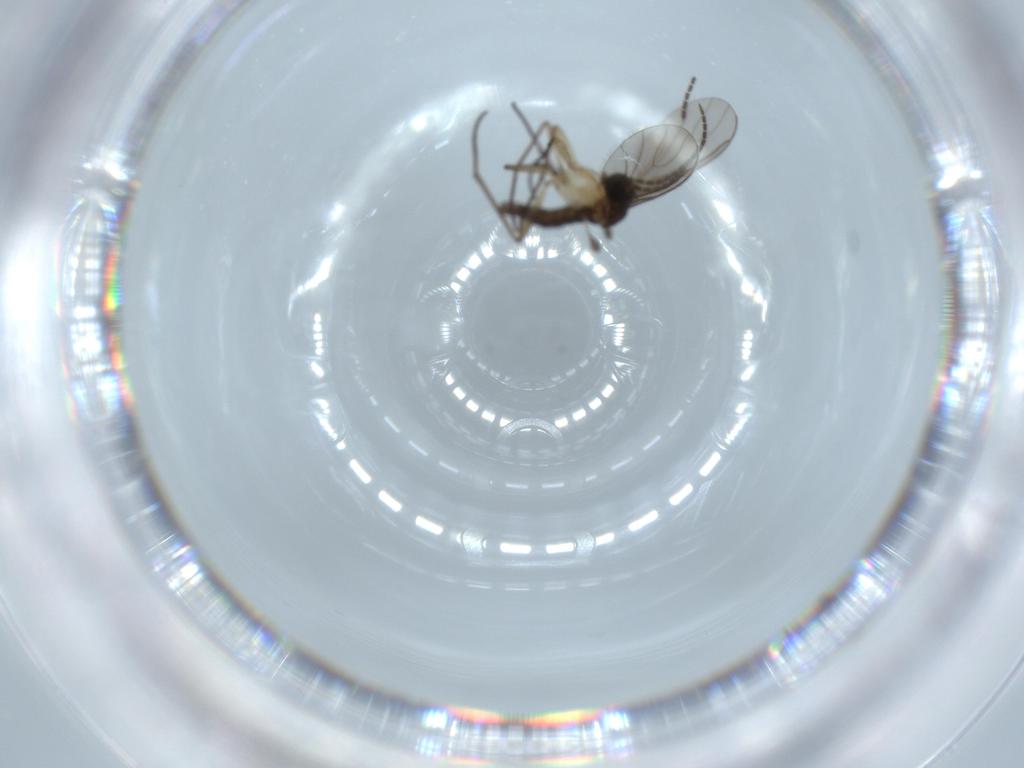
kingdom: Animalia
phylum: Arthropoda
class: Insecta
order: Diptera
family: Sciaridae
